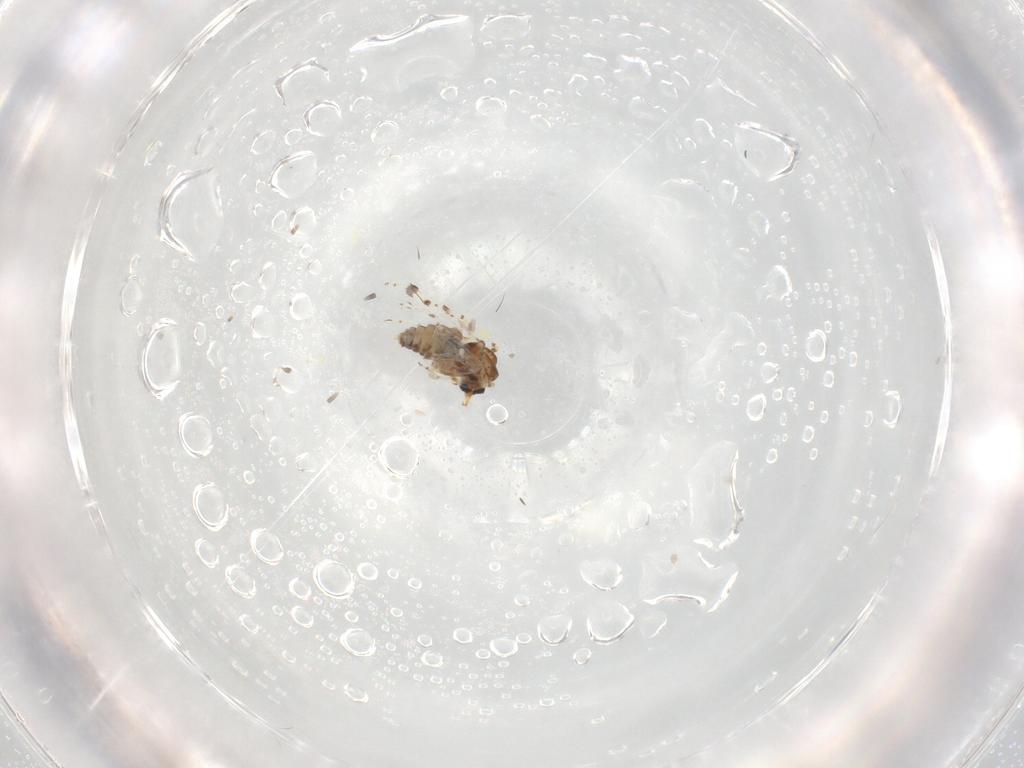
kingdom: Animalia
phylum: Arthropoda
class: Insecta
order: Diptera
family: Ceratopogonidae
